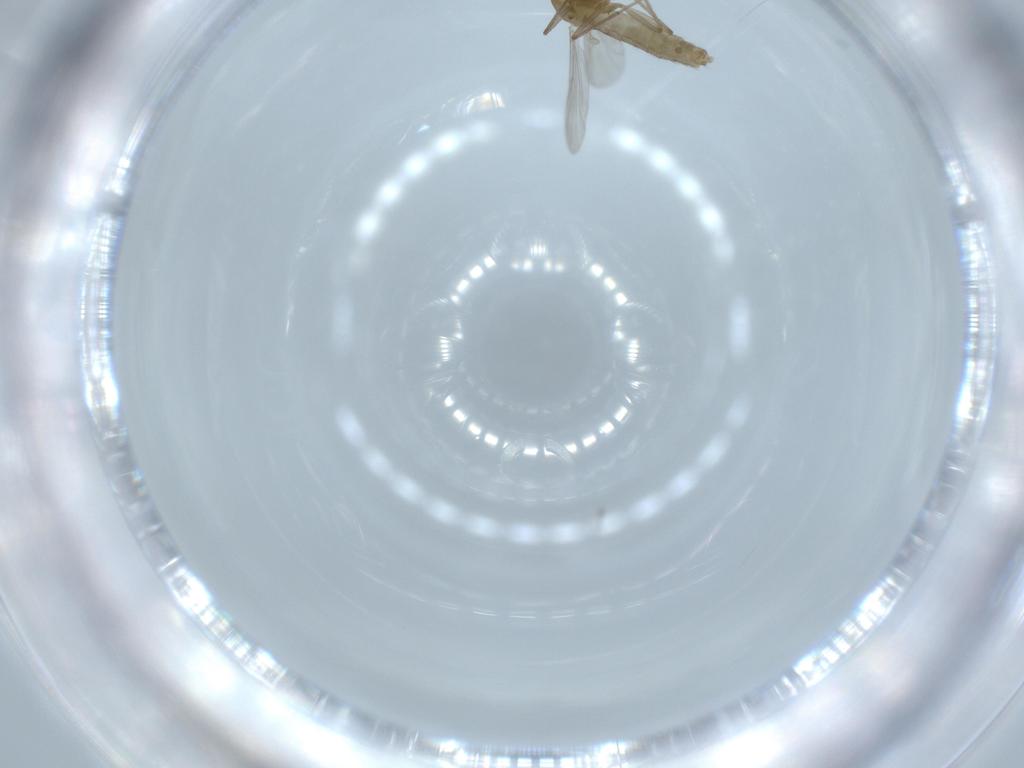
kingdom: Animalia
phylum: Arthropoda
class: Insecta
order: Diptera
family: Chironomidae
